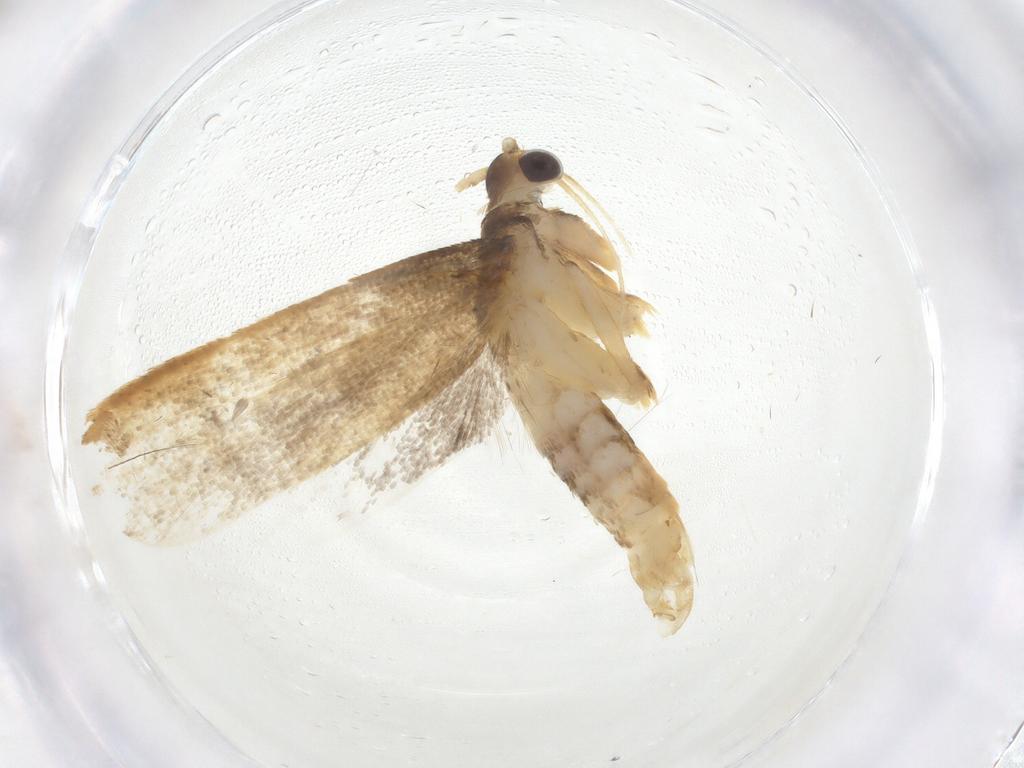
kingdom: Animalia
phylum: Arthropoda
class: Insecta
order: Lepidoptera
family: Lecithoceridae
